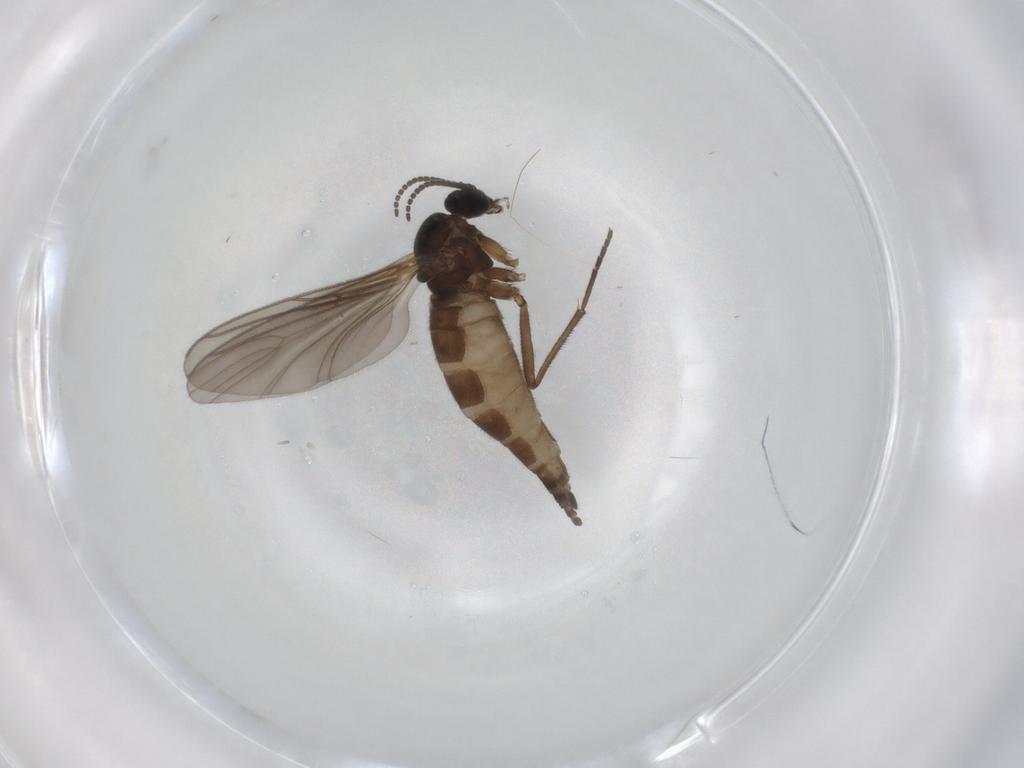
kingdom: Animalia
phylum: Arthropoda
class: Insecta
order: Diptera
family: Sciaridae
